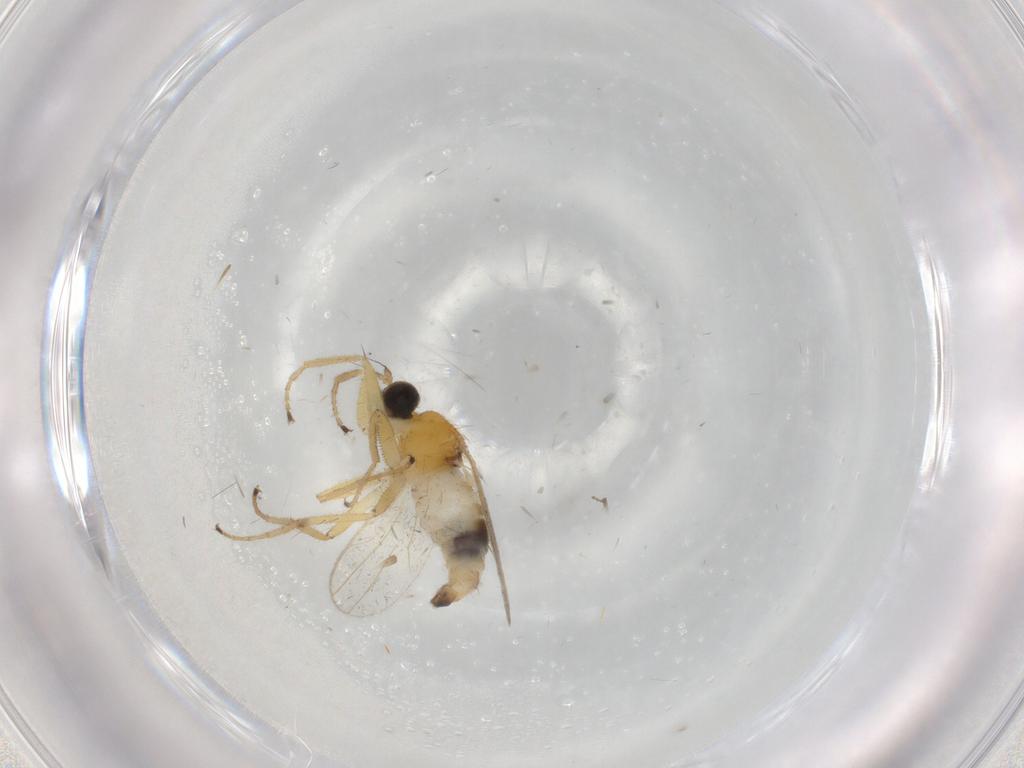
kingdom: Animalia
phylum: Arthropoda
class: Insecta
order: Diptera
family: Hybotidae
